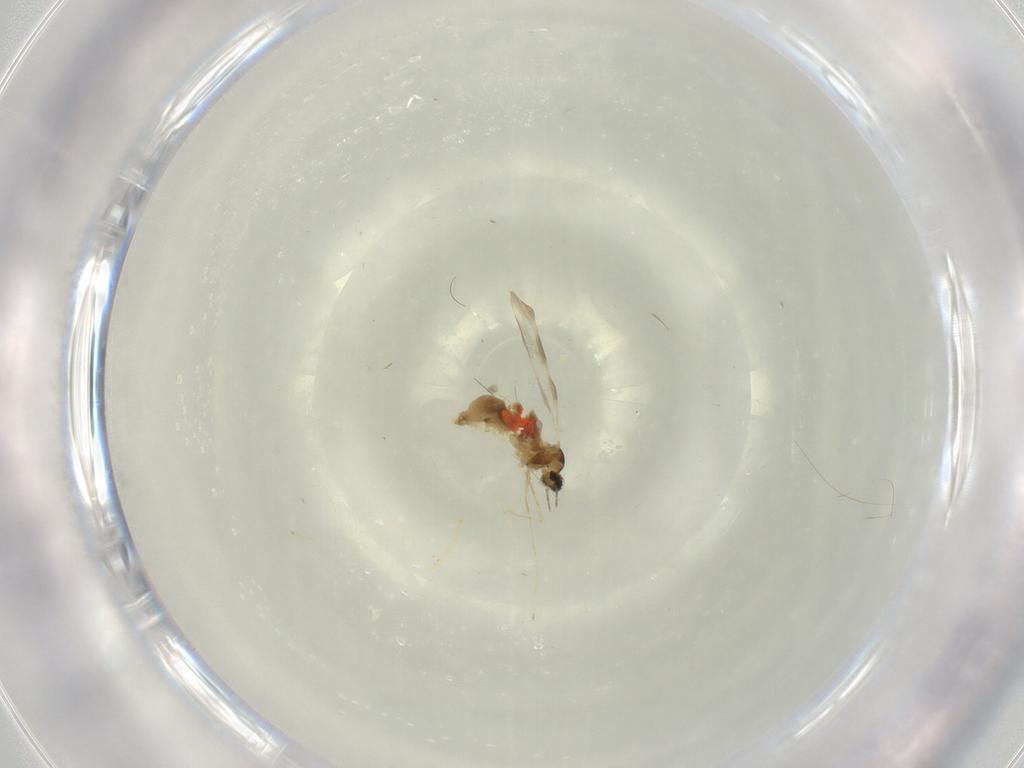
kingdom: Animalia
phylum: Arthropoda
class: Insecta
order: Diptera
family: Cecidomyiidae
